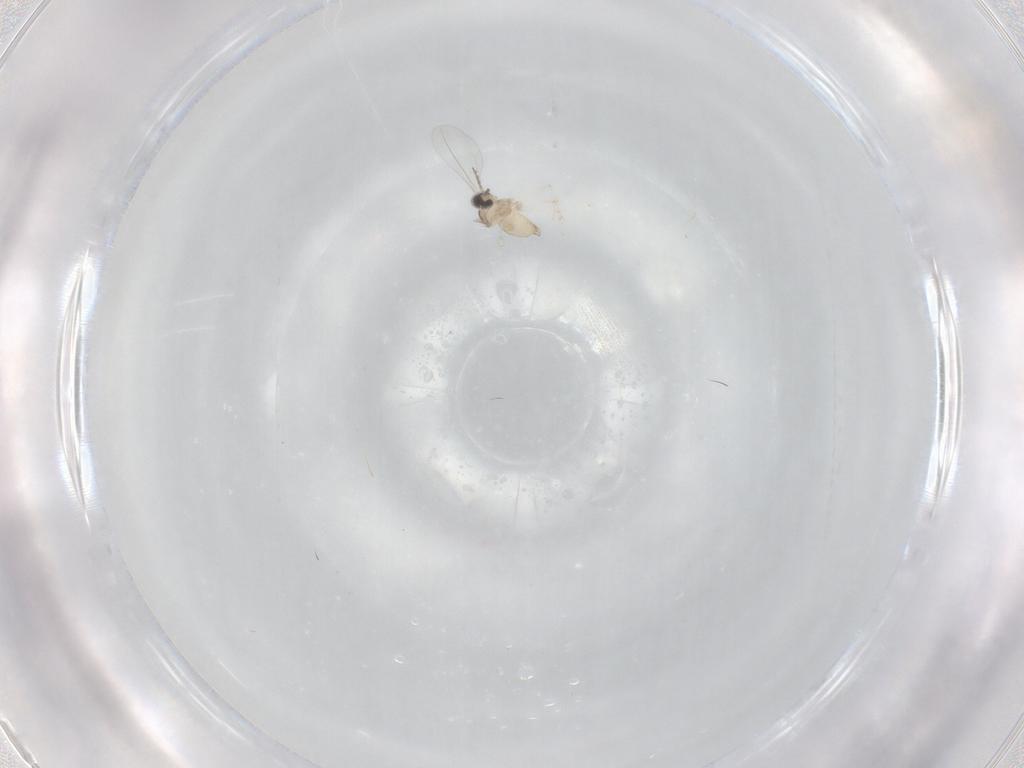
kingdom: Animalia
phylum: Arthropoda
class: Insecta
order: Diptera
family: Cecidomyiidae
